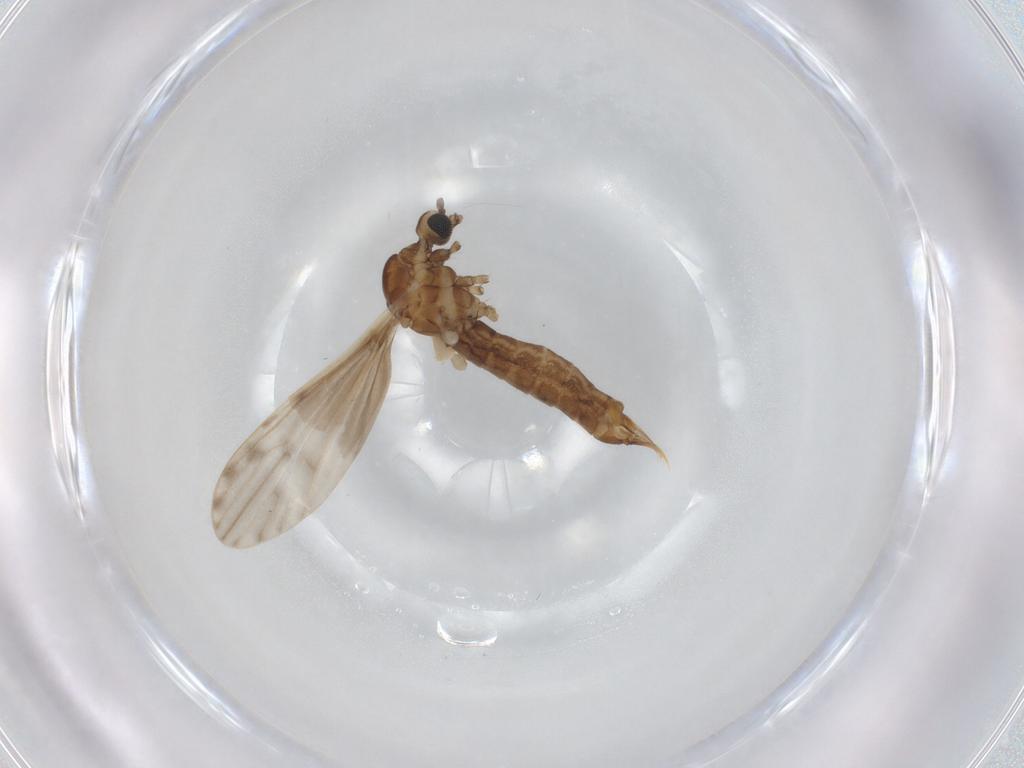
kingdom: Animalia
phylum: Arthropoda
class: Insecta
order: Diptera
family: Limoniidae
